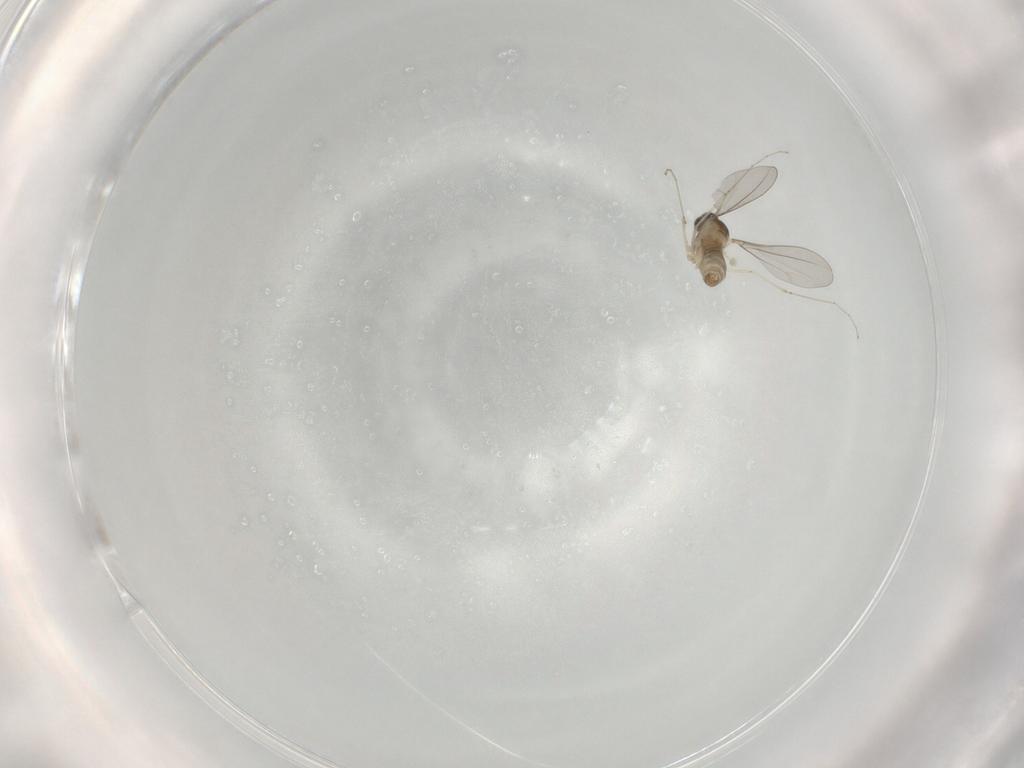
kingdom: Animalia
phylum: Arthropoda
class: Insecta
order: Diptera
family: Cecidomyiidae
